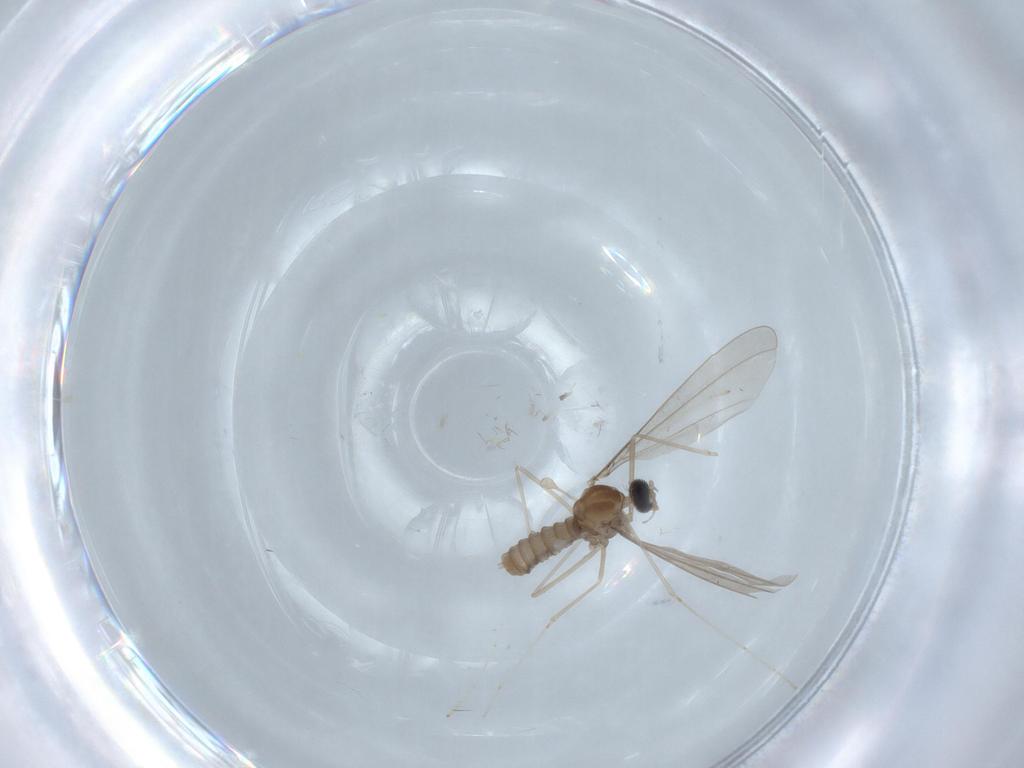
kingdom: Animalia
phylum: Arthropoda
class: Insecta
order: Diptera
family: Cecidomyiidae
